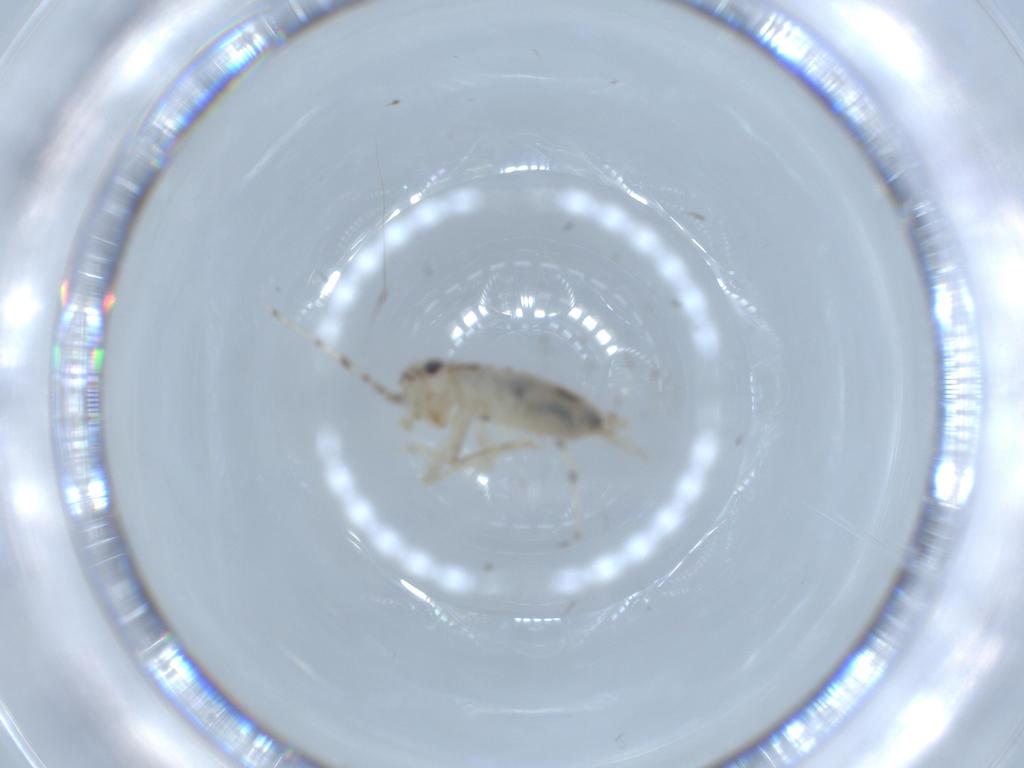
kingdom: Animalia
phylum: Arthropoda
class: Insecta
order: Orthoptera
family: Trigonidiidae
